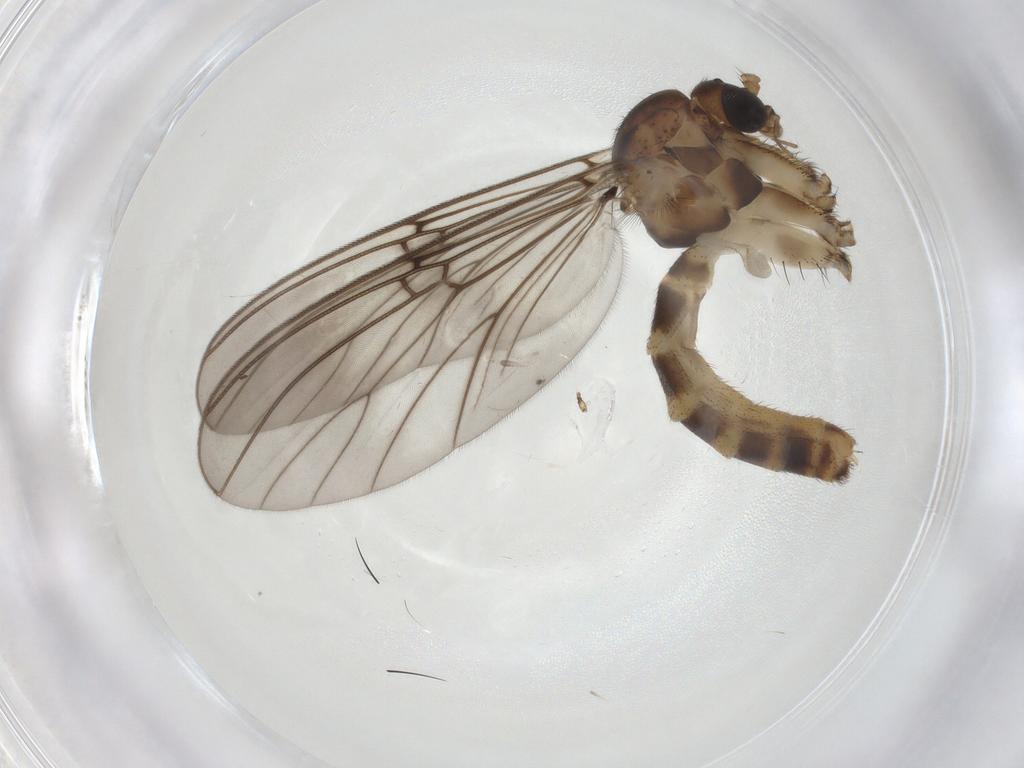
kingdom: Animalia
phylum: Arthropoda
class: Insecta
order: Diptera
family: Mycetophilidae
